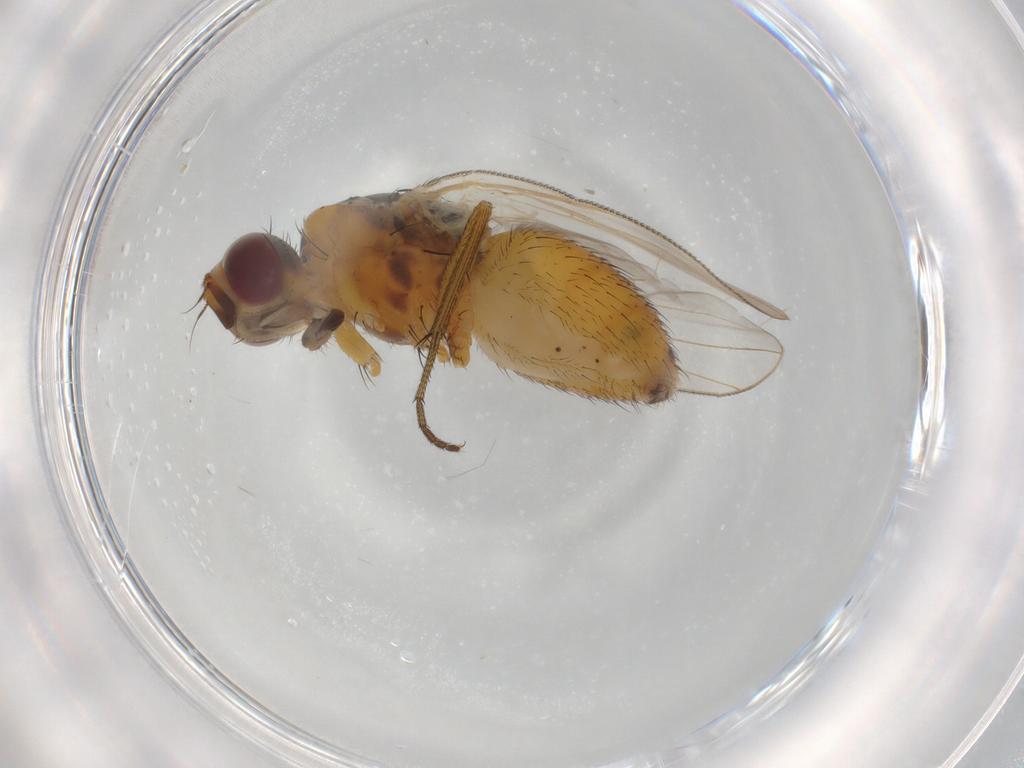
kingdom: Animalia
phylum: Arthropoda
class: Insecta
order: Diptera
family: Muscidae
